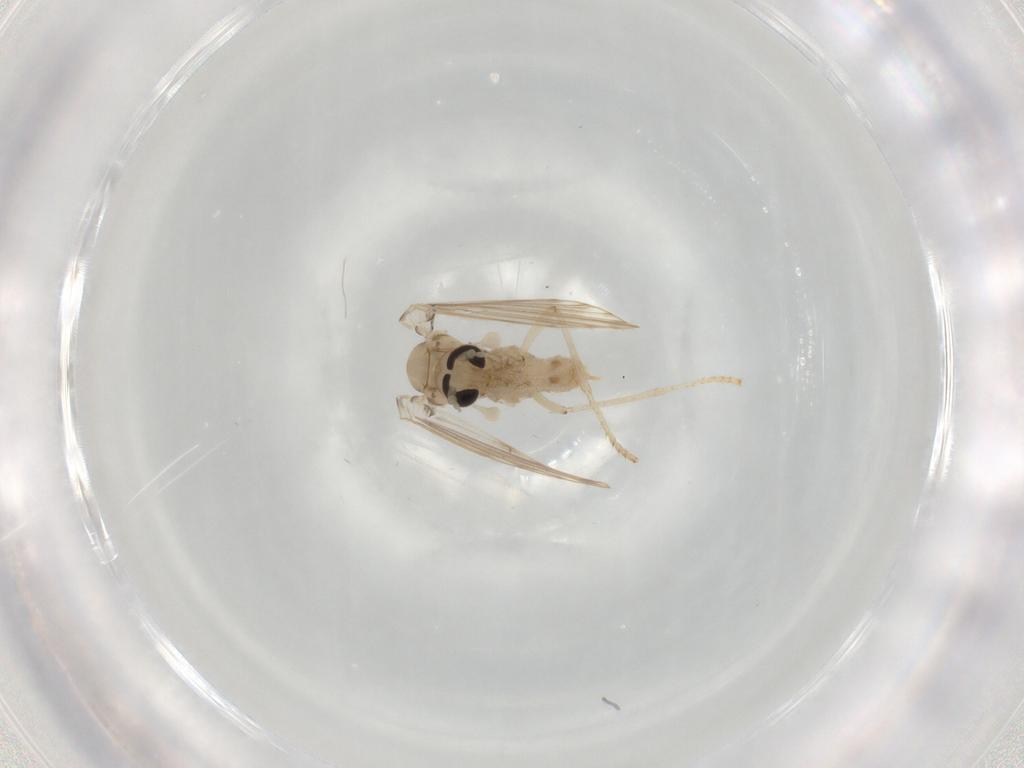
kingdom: Animalia
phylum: Arthropoda
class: Insecta
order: Diptera
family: Psychodidae
